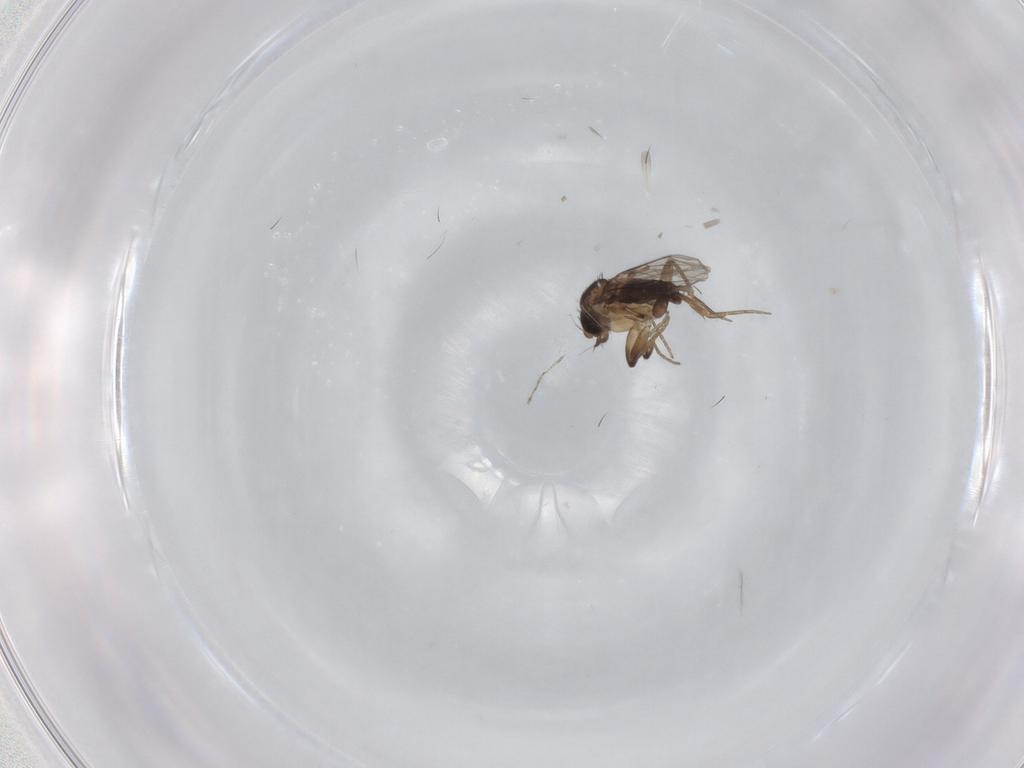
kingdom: Animalia
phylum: Arthropoda
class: Insecta
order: Diptera
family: Phoridae
